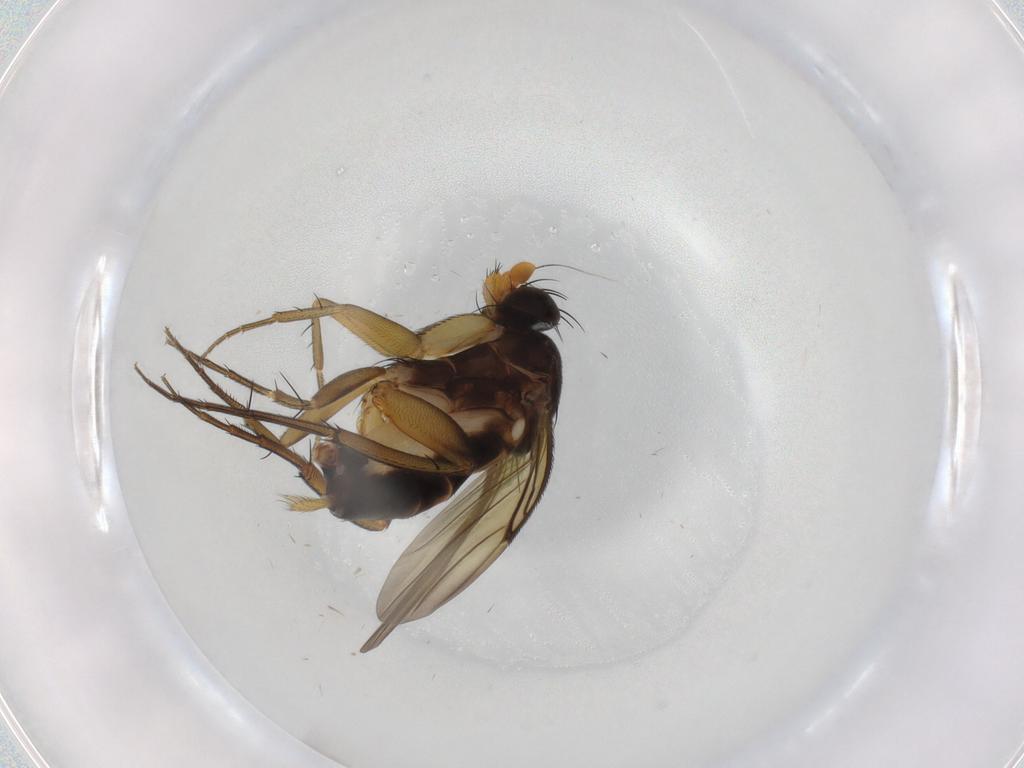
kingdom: Animalia
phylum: Arthropoda
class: Insecta
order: Diptera
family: Phoridae
